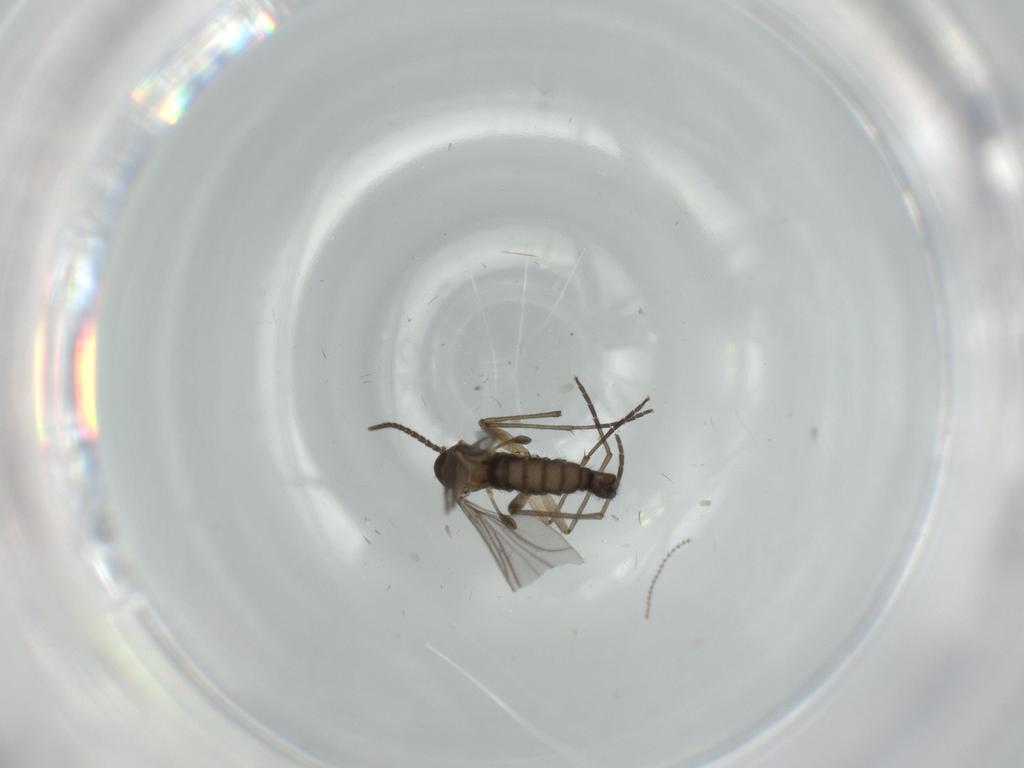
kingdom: Animalia
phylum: Arthropoda
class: Insecta
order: Diptera
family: Sciaridae
